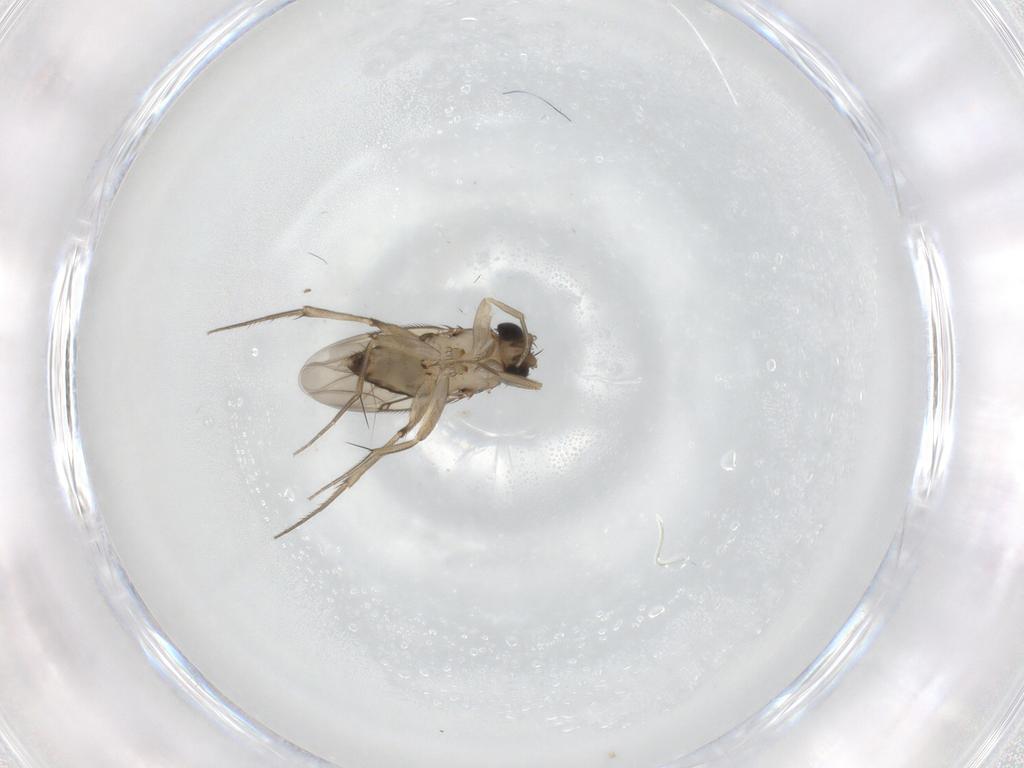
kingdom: Animalia
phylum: Arthropoda
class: Insecta
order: Diptera
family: Phoridae
